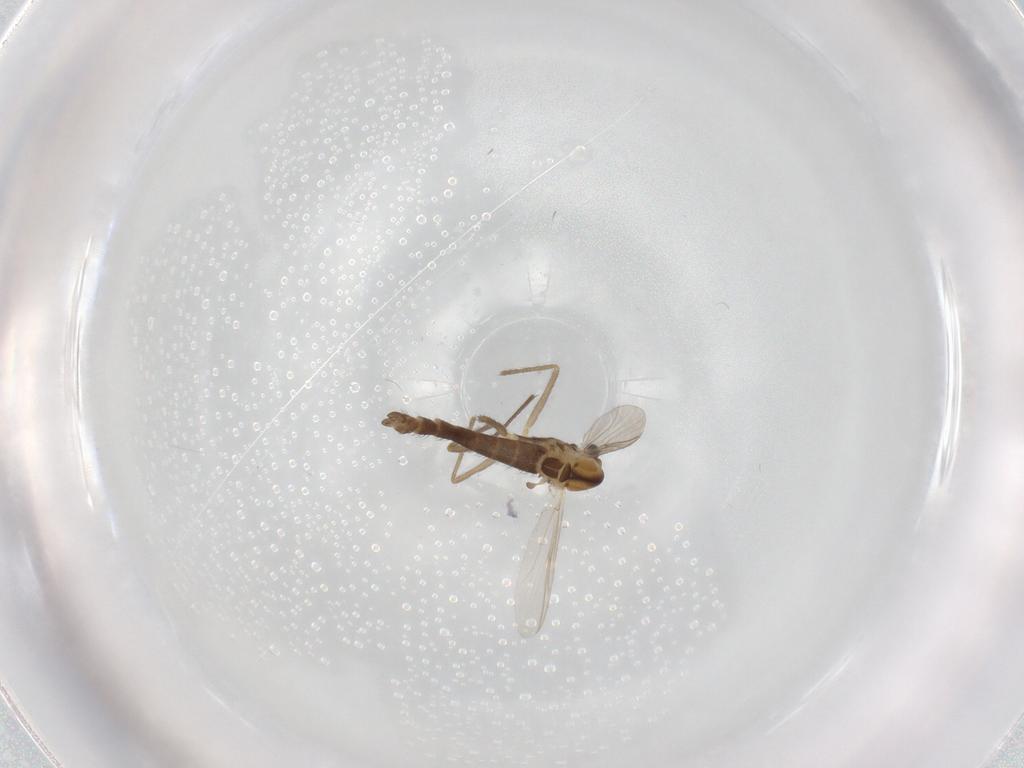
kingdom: Animalia
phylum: Arthropoda
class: Insecta
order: Diptera
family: Chironomidae
